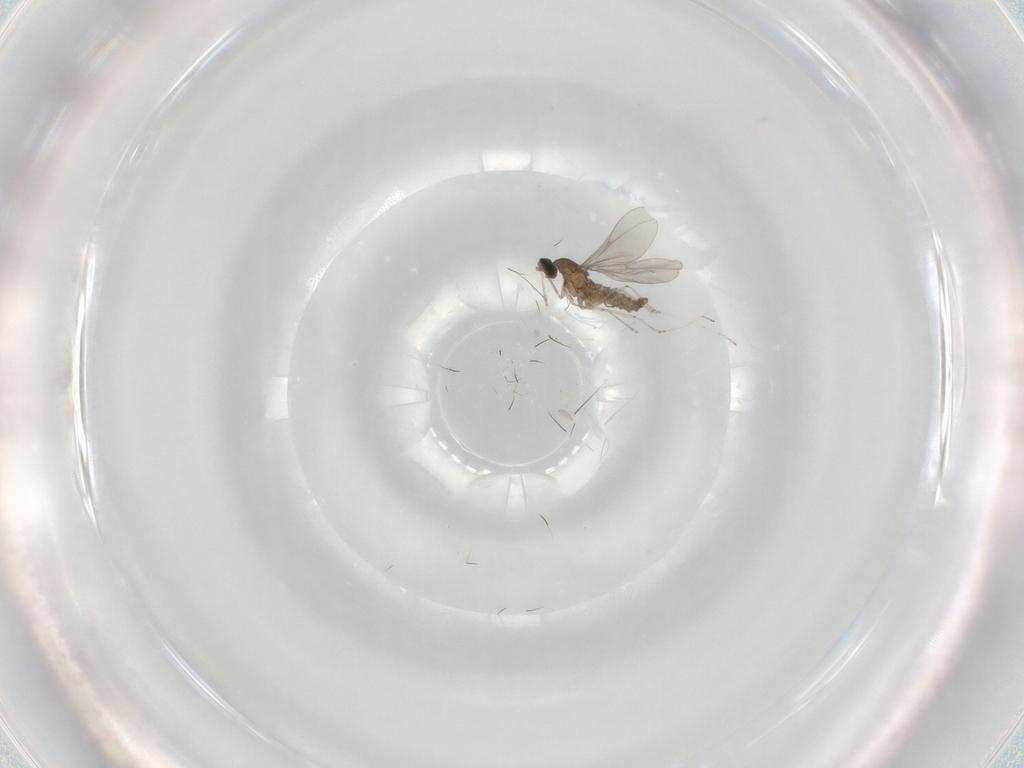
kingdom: Animalia
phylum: Arthropoda
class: Insecta
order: Diptera
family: Cecidomyiidae
